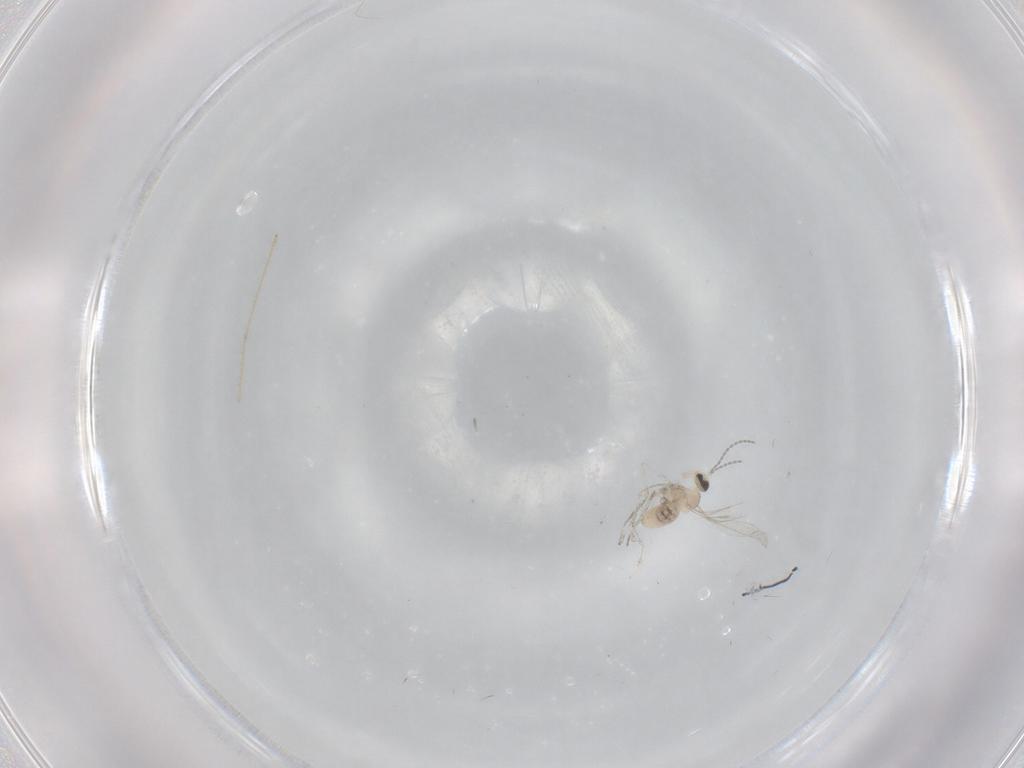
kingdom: Animalia
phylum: Arthropoda
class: Insecta
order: Diptera
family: Cecidomyiidae
